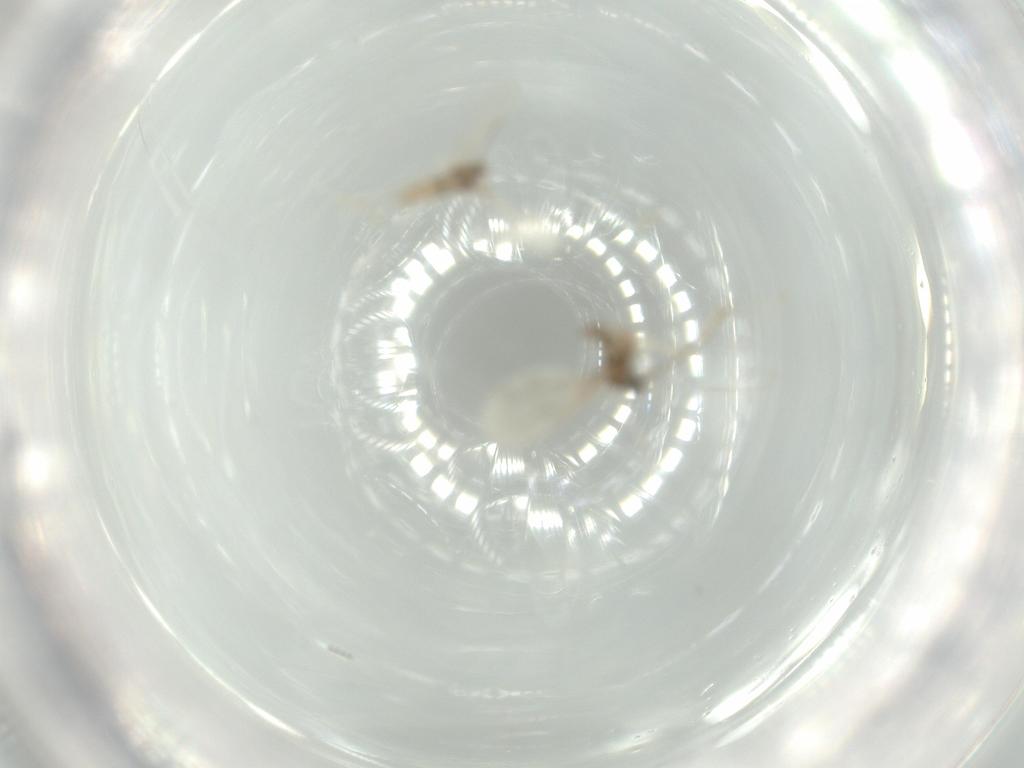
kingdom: Animalia
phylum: Arthropoda
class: Insecta
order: Diptera
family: Cecidomyiidae
